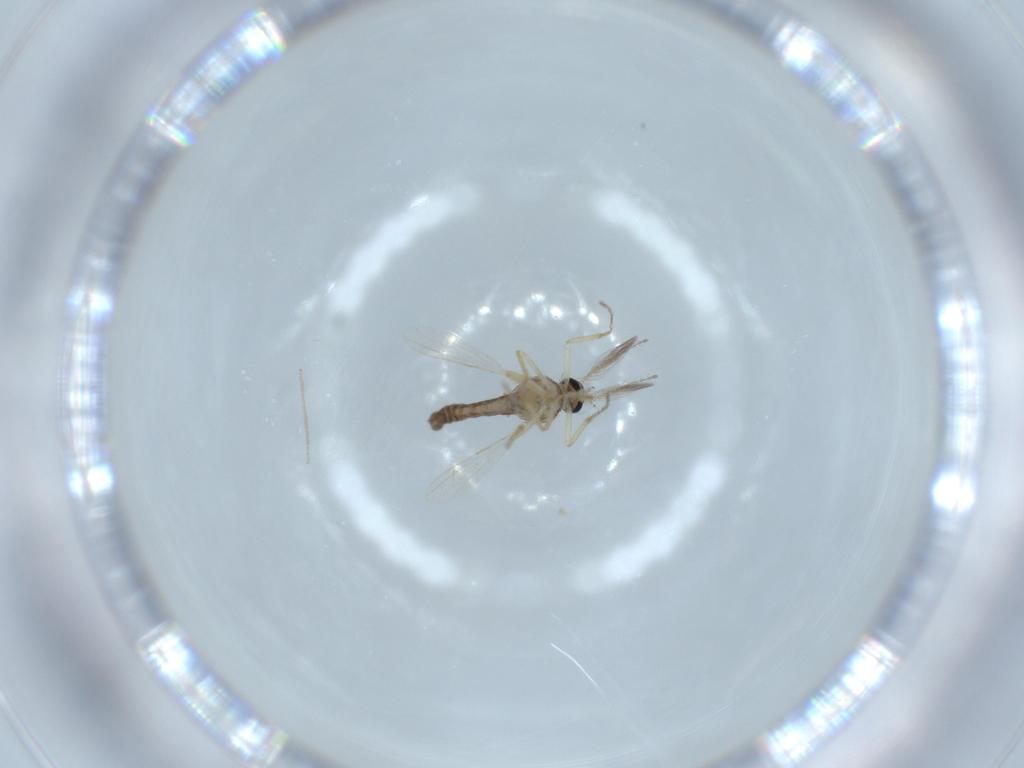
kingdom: Animalia
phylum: Arthropoda
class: Insecta
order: Diptera
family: Ceratopogonidae
